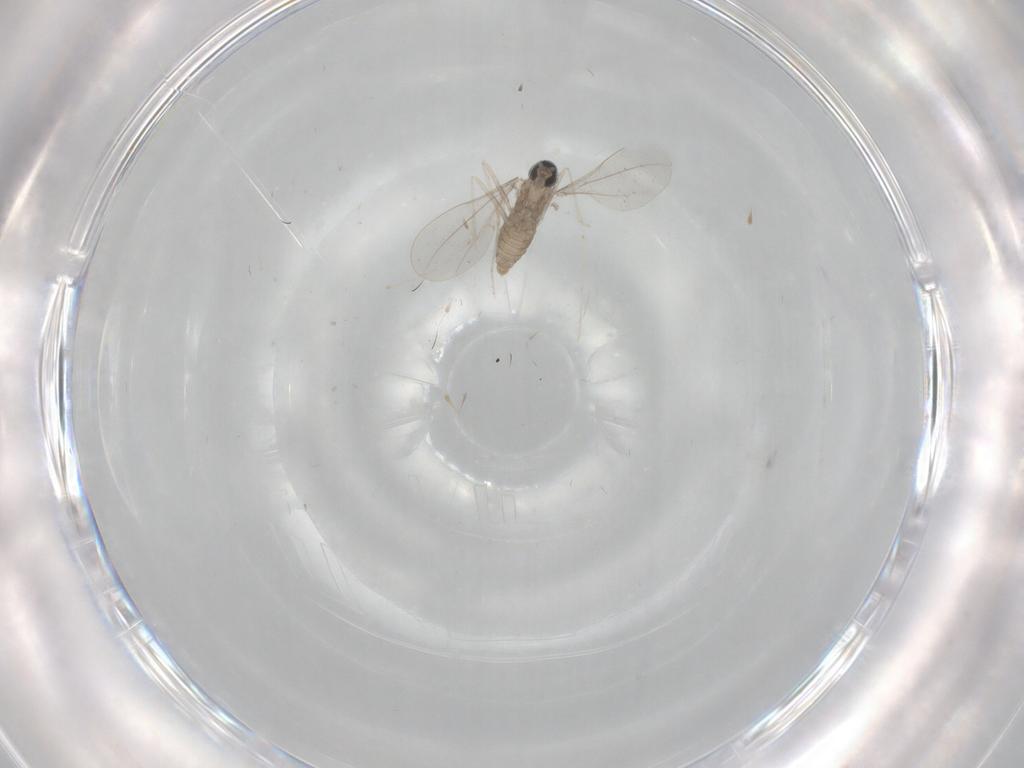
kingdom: Animalia
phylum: Arthropoda
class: Insecta
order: Diptera
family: Cecidomyiidae
